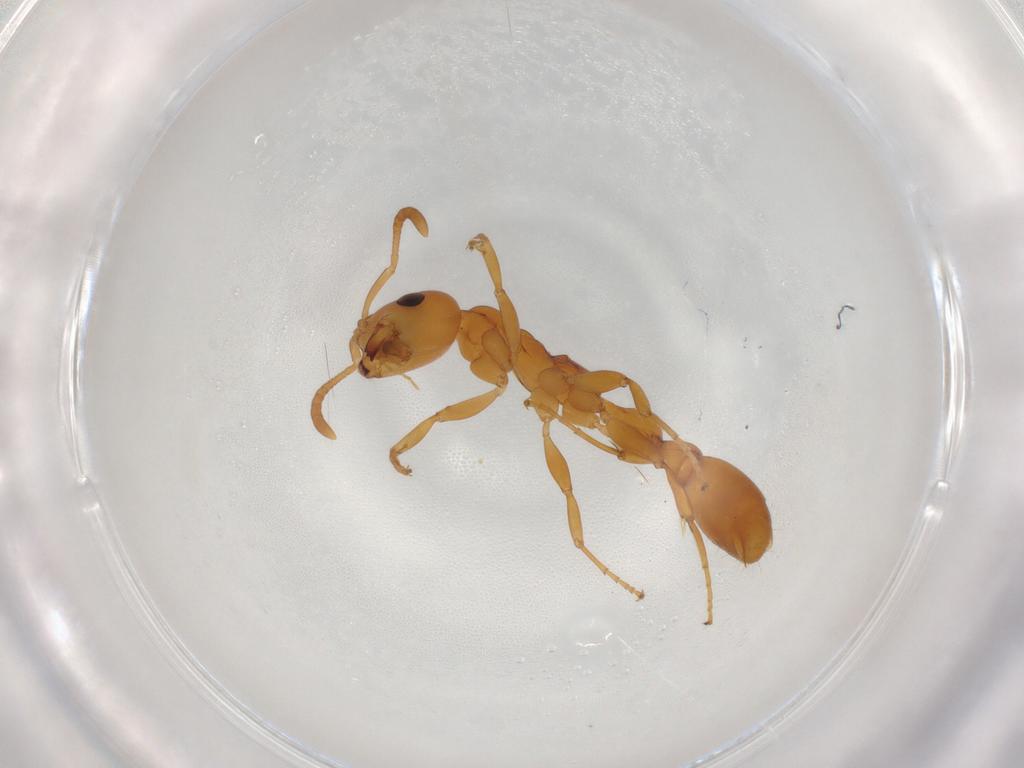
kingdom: Animalia
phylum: Arthropoda
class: Insecta
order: Hymenoptera
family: Formicidae
